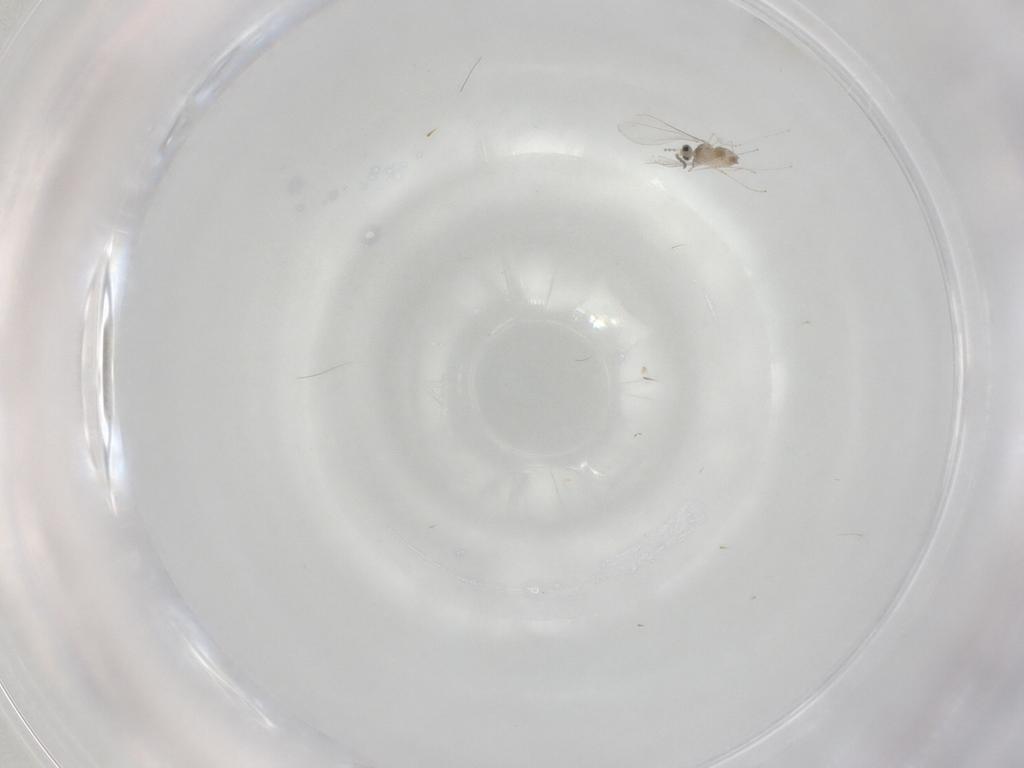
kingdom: Animalia
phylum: Arthropoda
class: Insecta
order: Diptera
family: Cecidomyiidae
